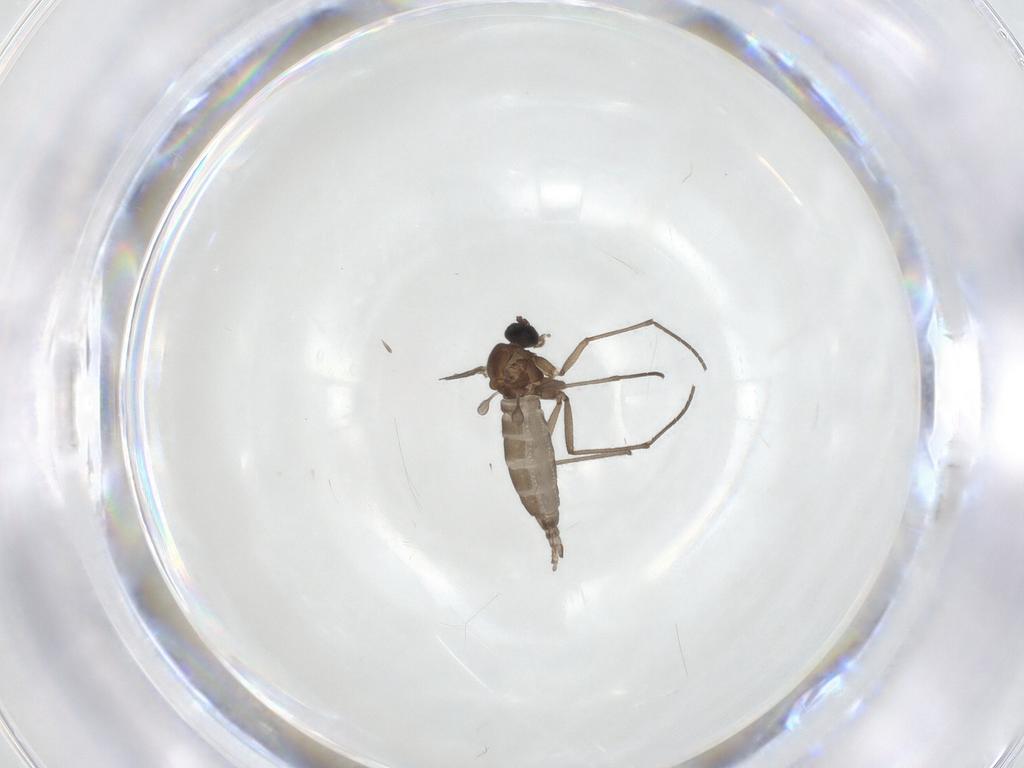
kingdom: Animalia
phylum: Arthropoda
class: Insecta
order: Diptera
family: Sciaridae
